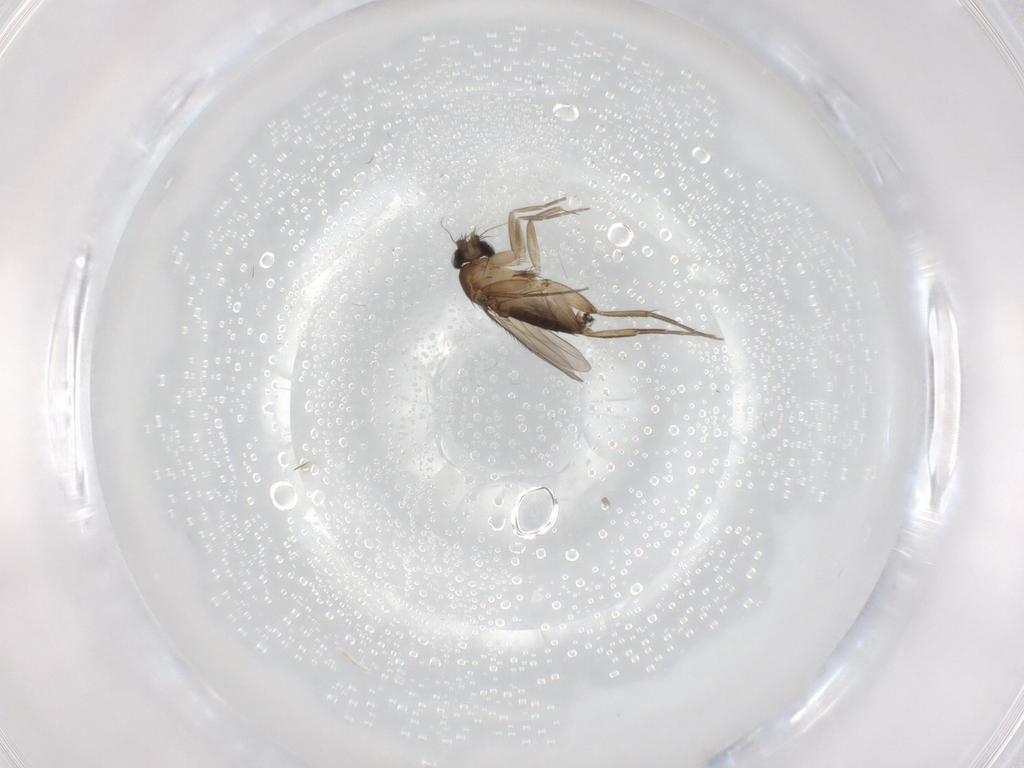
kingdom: Animalia
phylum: Arthropoda
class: Insecta
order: Diptera
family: Phoridae
